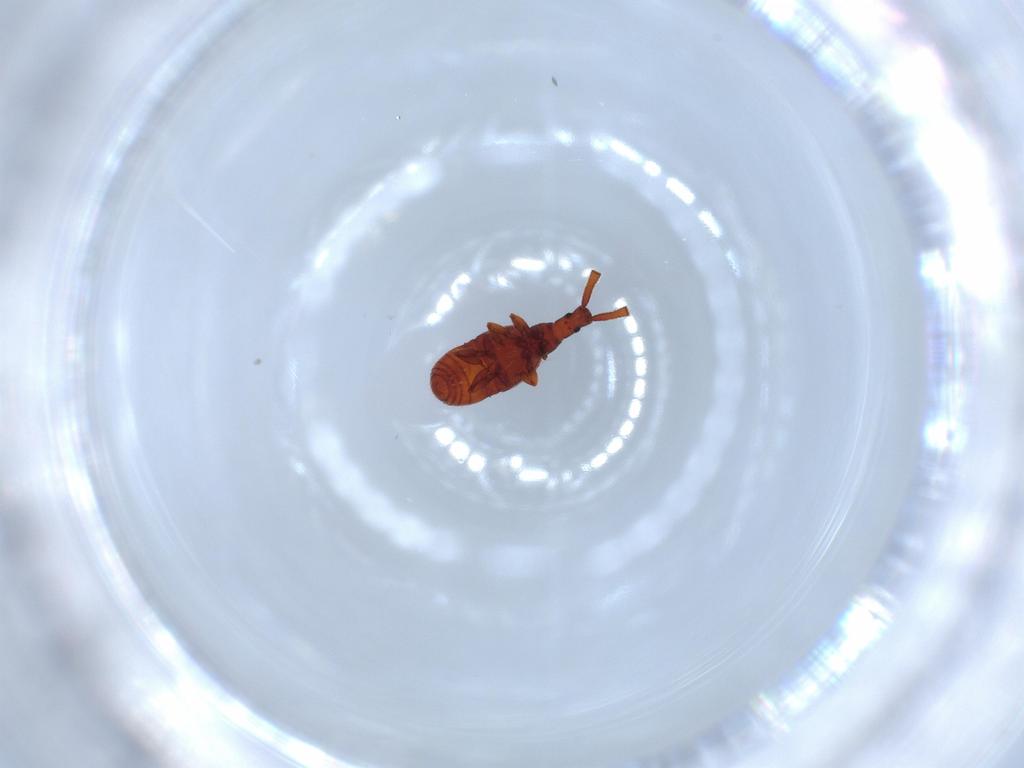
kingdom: Animalia
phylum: Arthropoda
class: Insecta
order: Coleoptera
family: Staphylinidae
